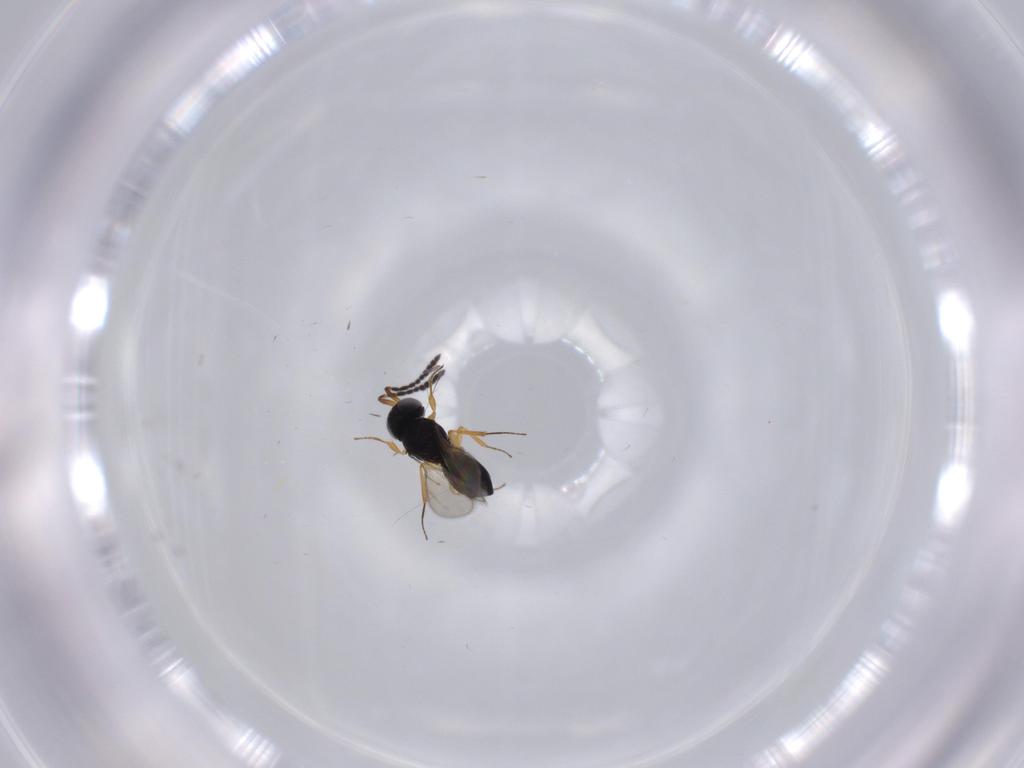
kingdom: Animalia
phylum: Arthropoda
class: Insecta
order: Hymenoptera
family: Scelionidae
